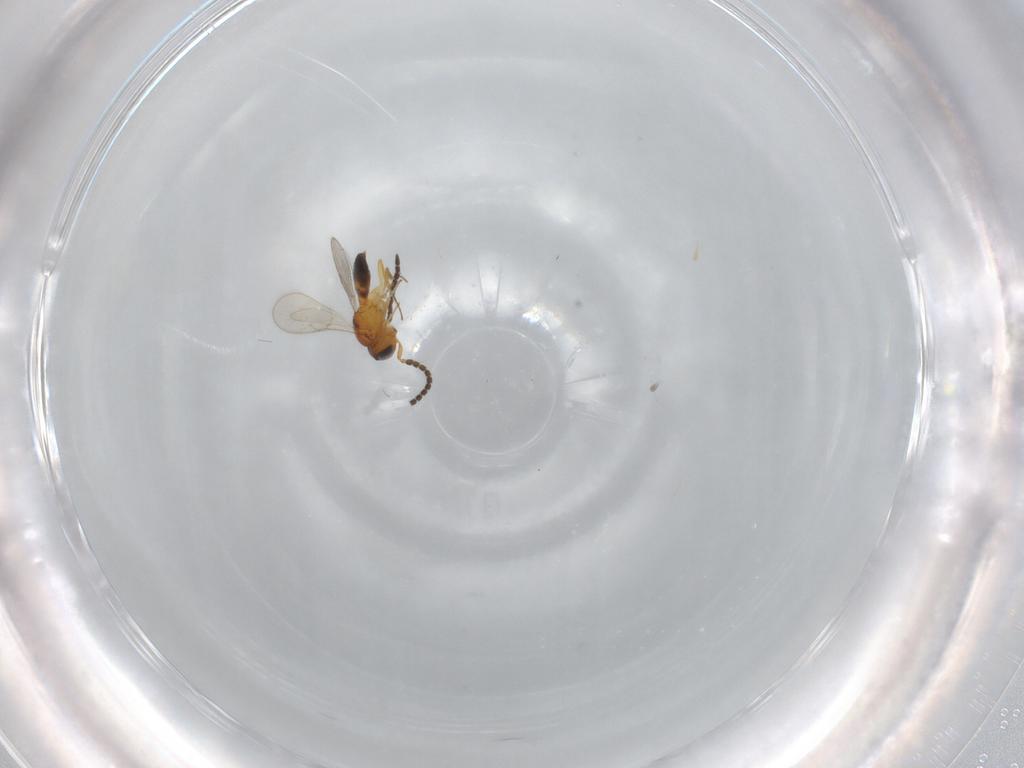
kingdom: Animalia
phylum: Arthropoda
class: Insecta
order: Hymenoptera
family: Scelionidae
